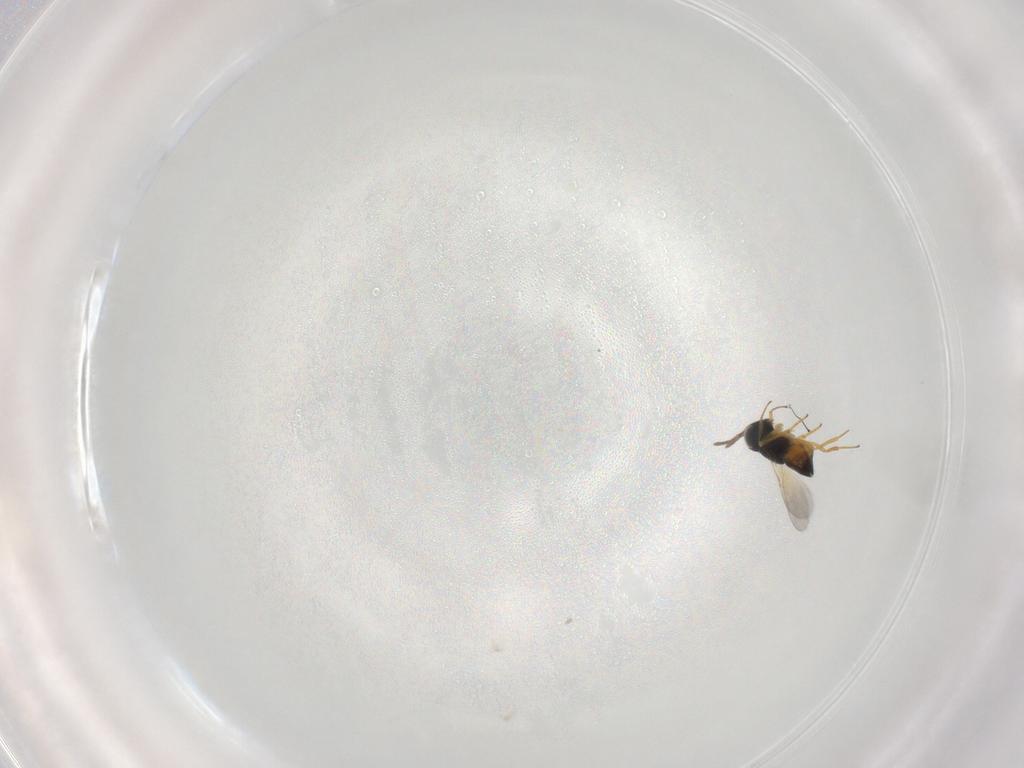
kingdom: Animalia
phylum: Arthropoda
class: Insecta
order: Hymenoptera
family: Encyrtidae
